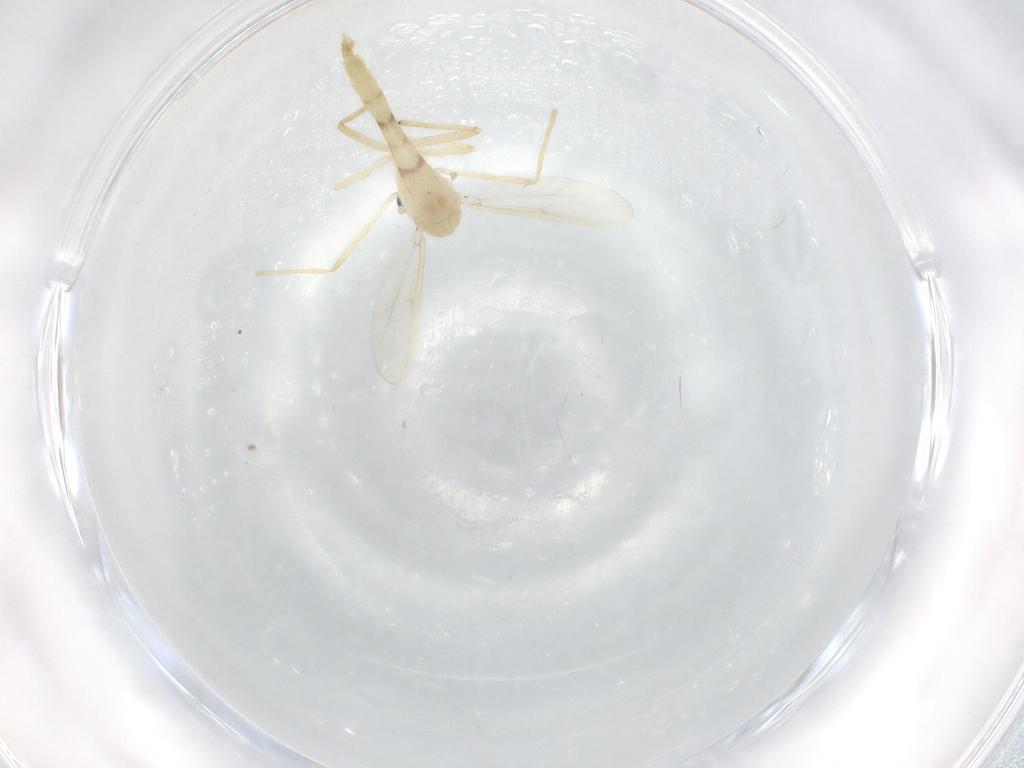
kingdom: Animalia
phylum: Arthropoda
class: Insecta
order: Diptera
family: Chironomidae
